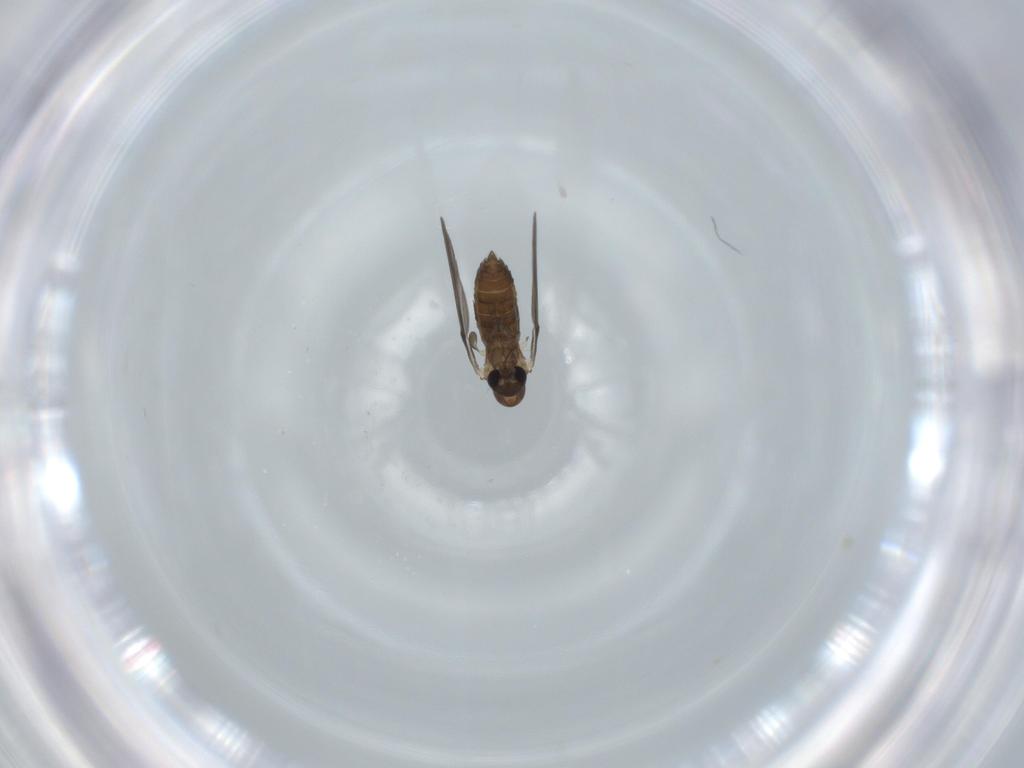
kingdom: Animalia
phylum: Arthropoda
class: Insecta
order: Diptera
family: Psychodidae
